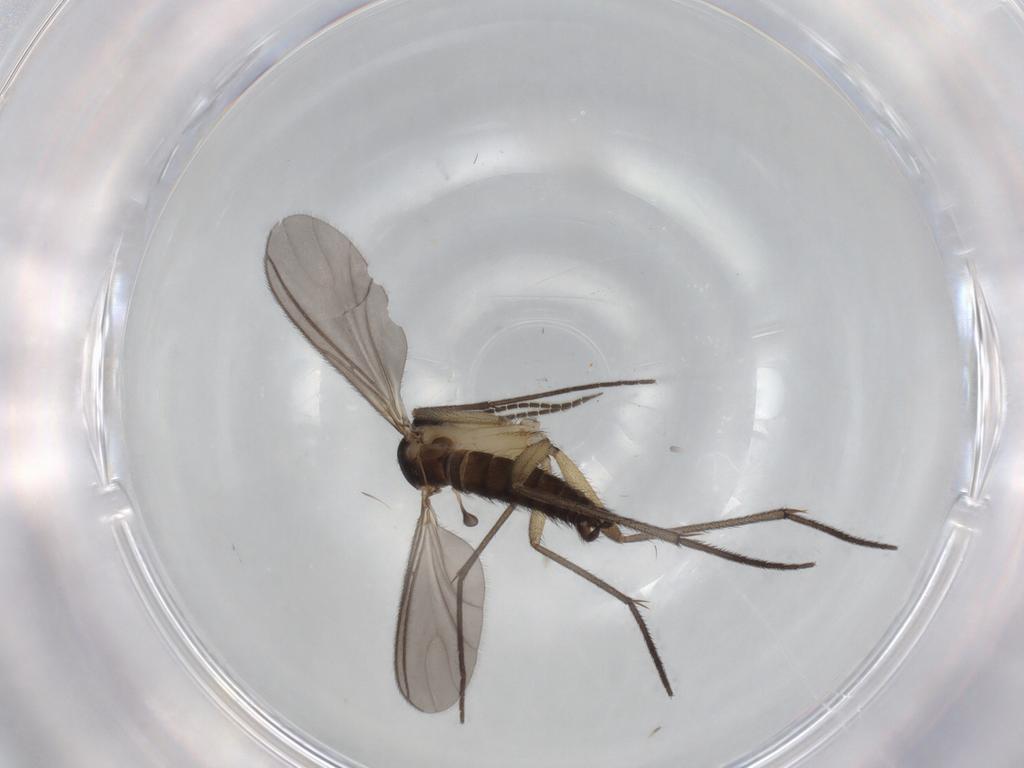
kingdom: Animalia
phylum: Arthropoda
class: Insecta
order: Diptera
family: Sciaridae
